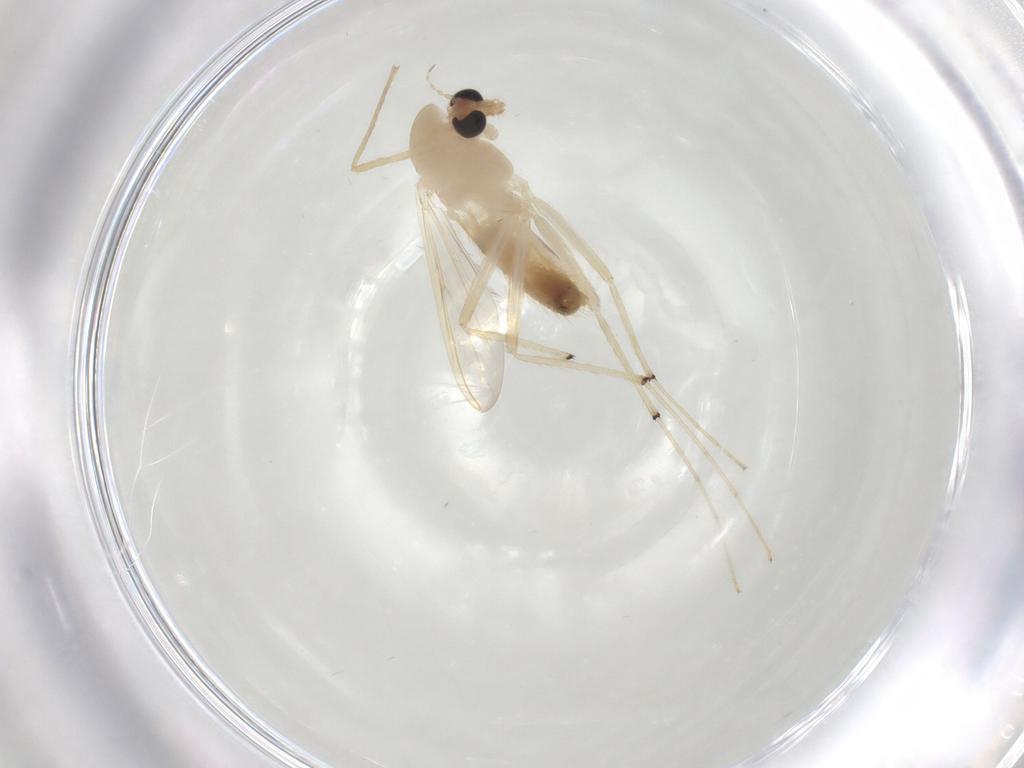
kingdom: Animalia
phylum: Arthropoda
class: Insecta
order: Diptera
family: Chironomidae
